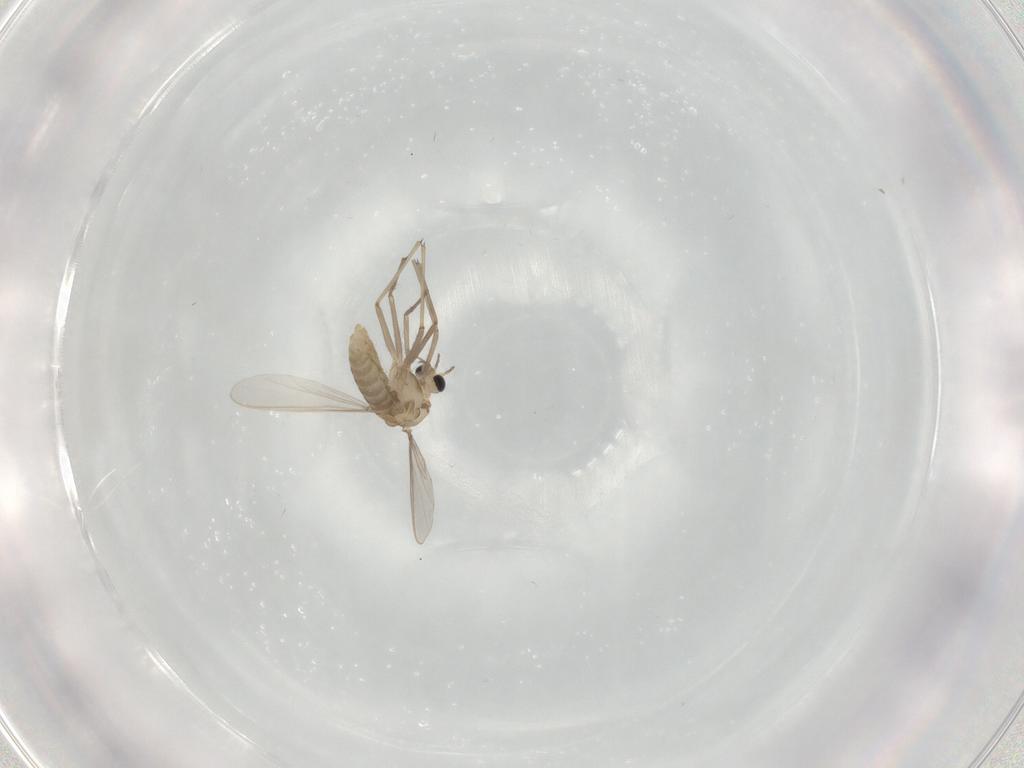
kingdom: Animalia
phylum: Arthropoda
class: Insecta
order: Diptera
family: Chironomidae
